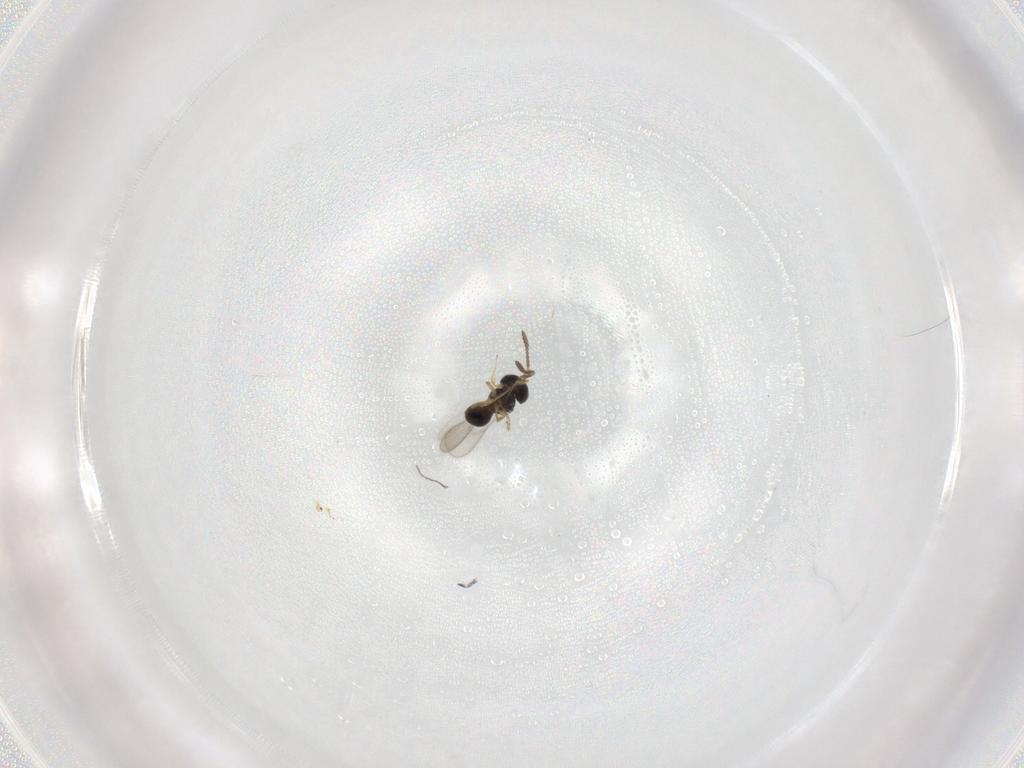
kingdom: Animalia
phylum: Arthropoda
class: Insecta
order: Hymenoptera
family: Scelionidae
